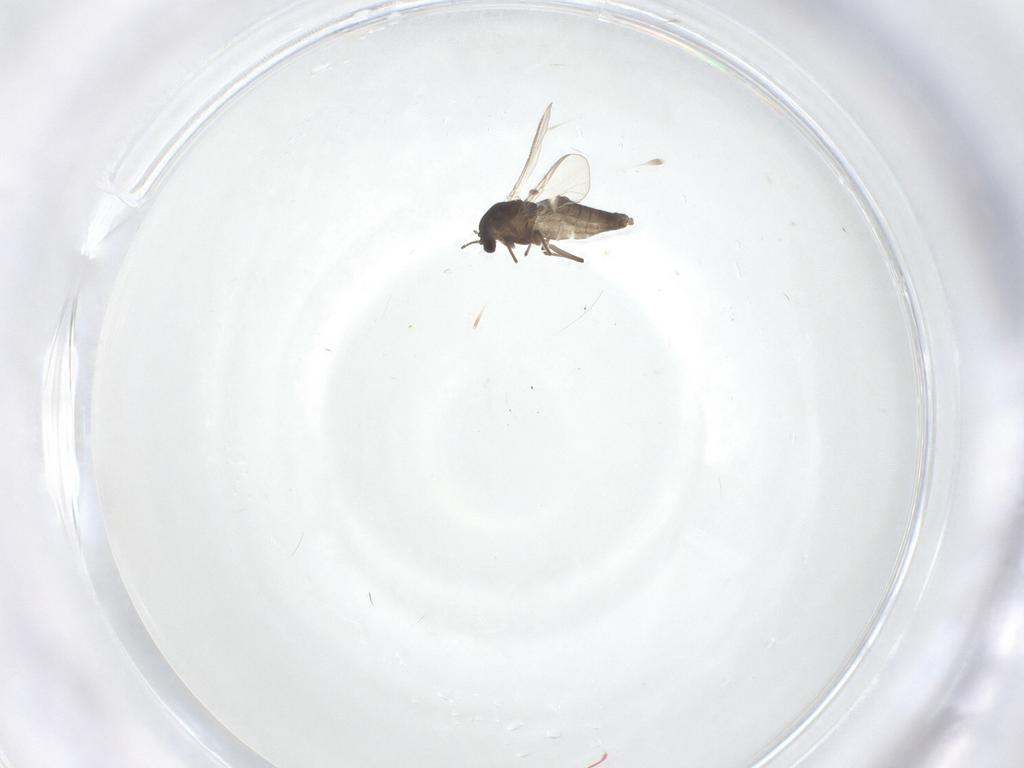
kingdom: Animalia
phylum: Arthropoda
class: Insecta
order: Diptera
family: Chironomidae
